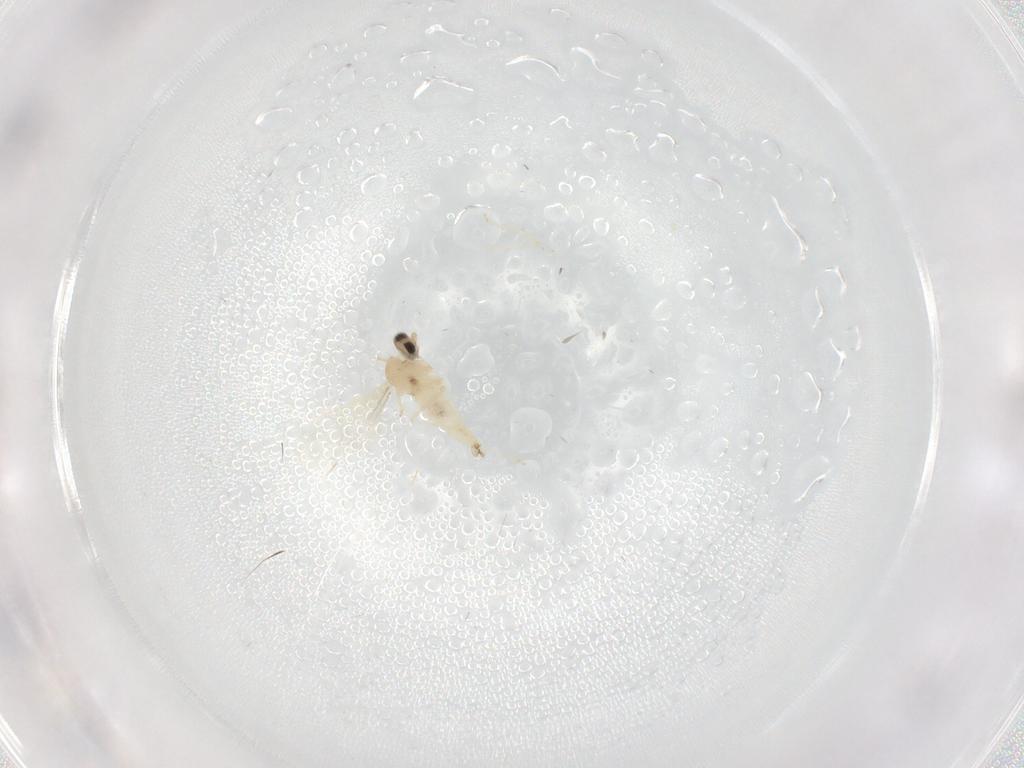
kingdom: Animalia
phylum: Arthropoda
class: Insecta
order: Diptera
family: Cecidomyiidae
